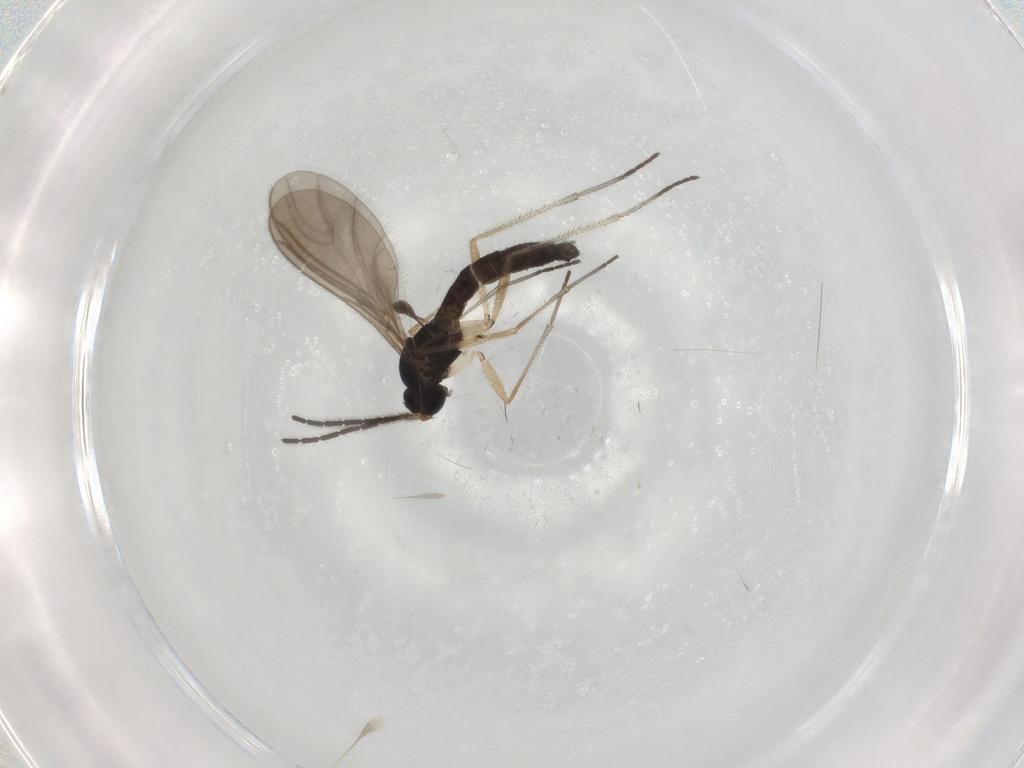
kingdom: Animalia
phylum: Arthropoda
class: Insecta
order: Diptera
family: Sciaridae
